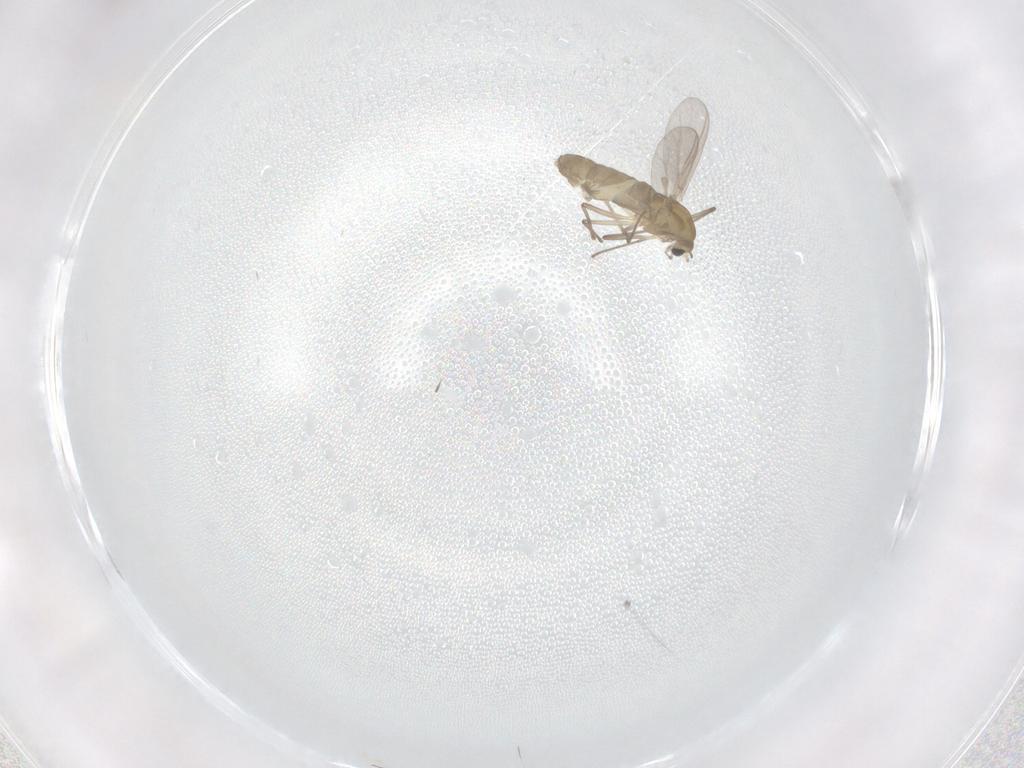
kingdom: Animalia
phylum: Arthropoda
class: Insecta
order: Diptera
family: Chironomidae
